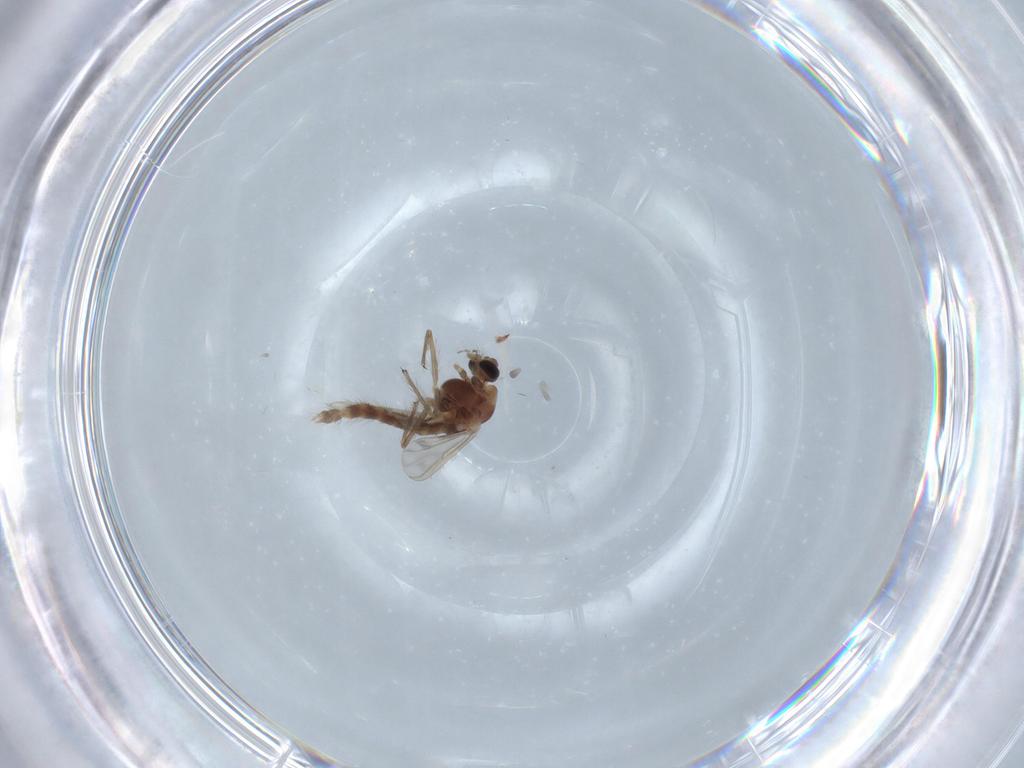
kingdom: Animalia
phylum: Arthropoda
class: Insecta
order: Diptera
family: Chironomidae
